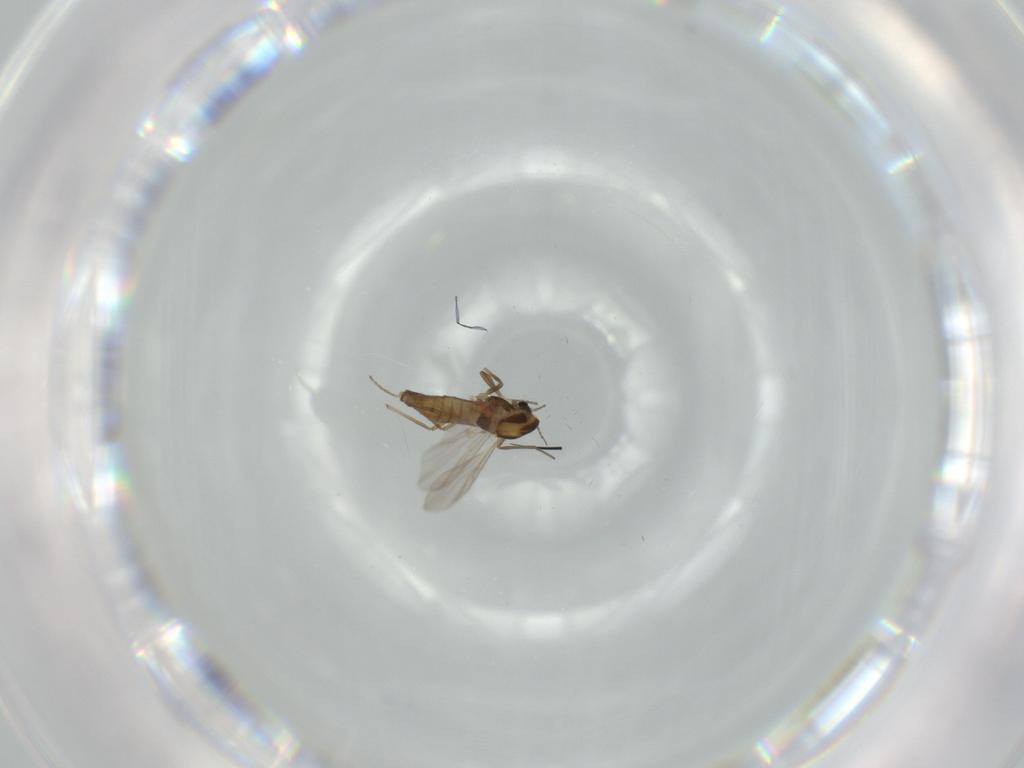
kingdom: Animalia
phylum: Arthropoda
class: Insecta
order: Diptera
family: Chironomidae
